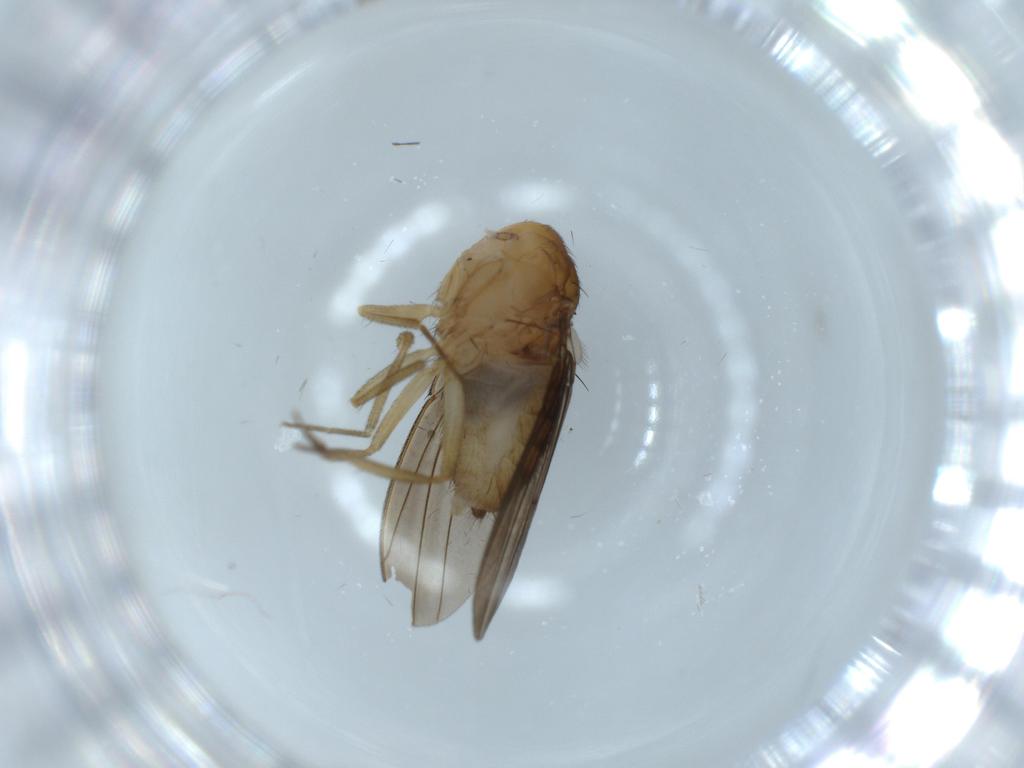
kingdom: Animalia
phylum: Arthropoda
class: Insecta
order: Diptera
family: Drosophilidae
